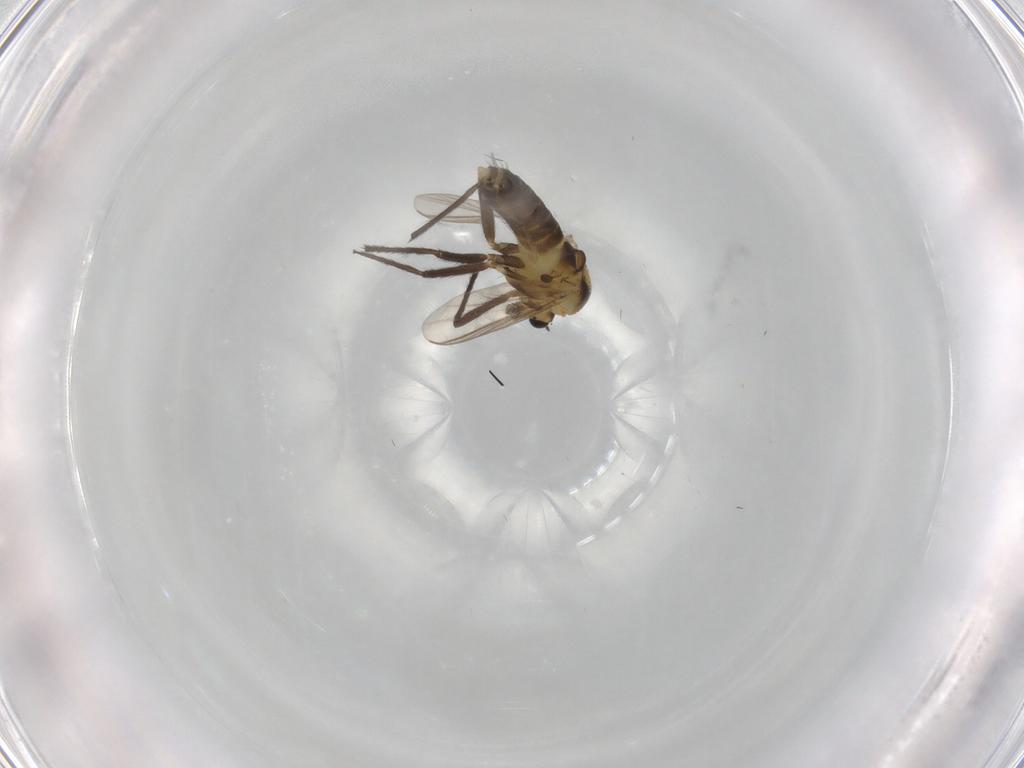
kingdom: Animalia
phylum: Arthropoda
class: Insecta
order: Diptera
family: Chironomidae
